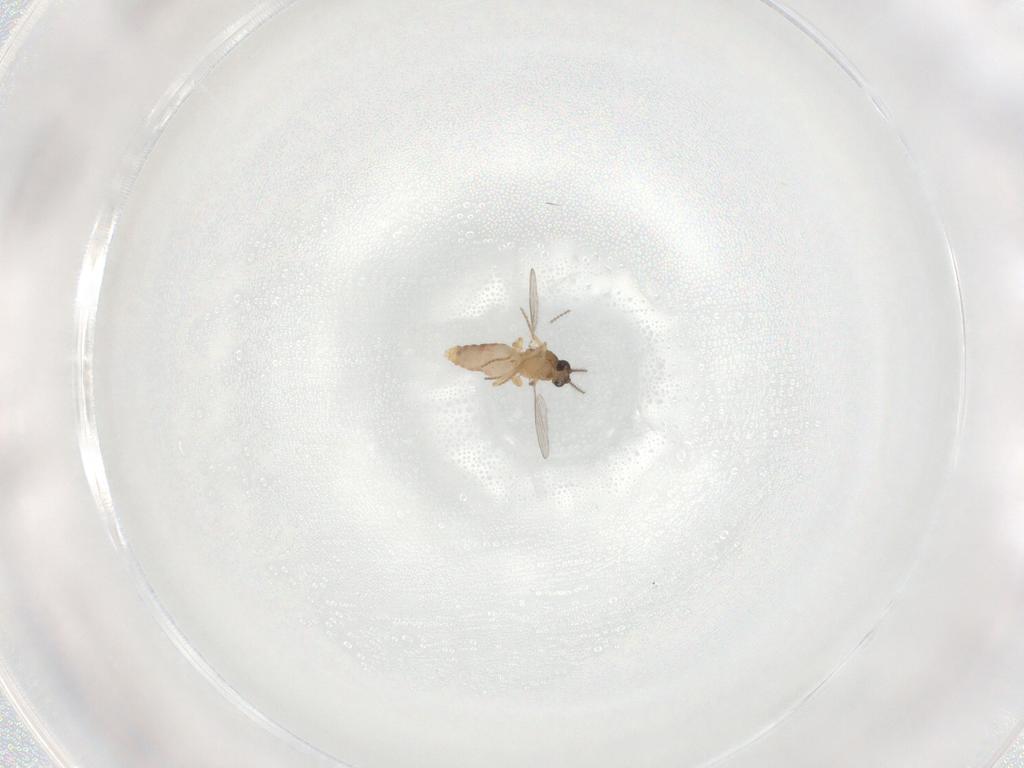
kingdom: Animalia
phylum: Arthropoda
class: Insecta
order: Diptera
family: Ceratopogonidae
